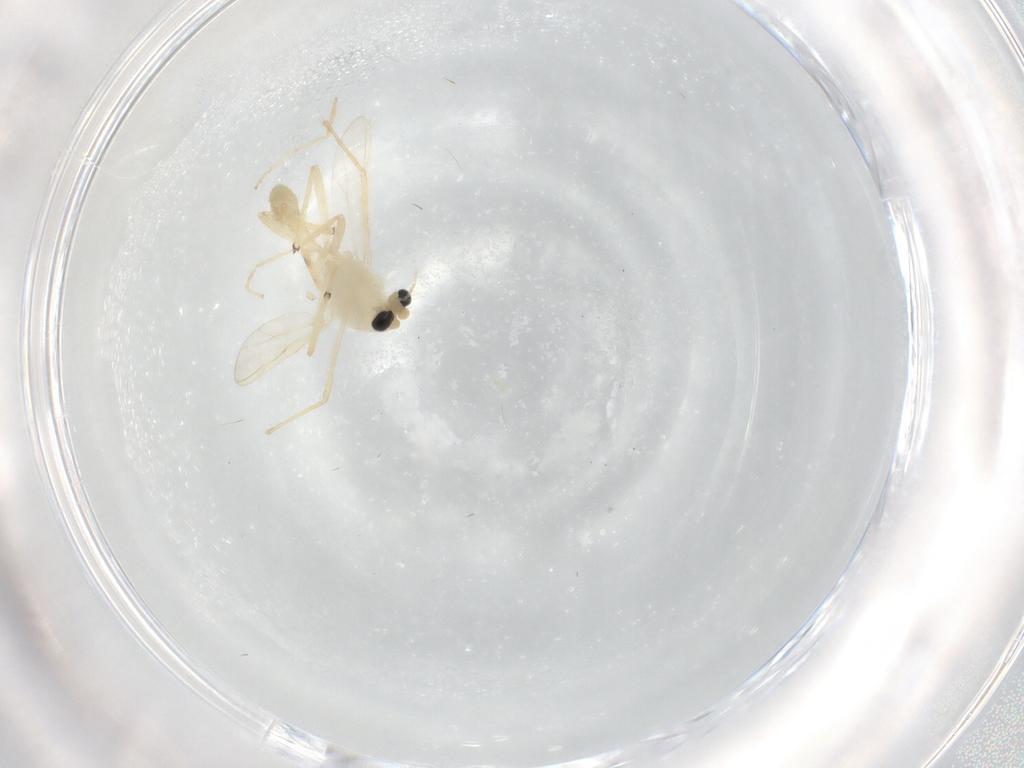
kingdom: Animalia
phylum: Arthropoda
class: Insecta
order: Diptera
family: Chironomidae
